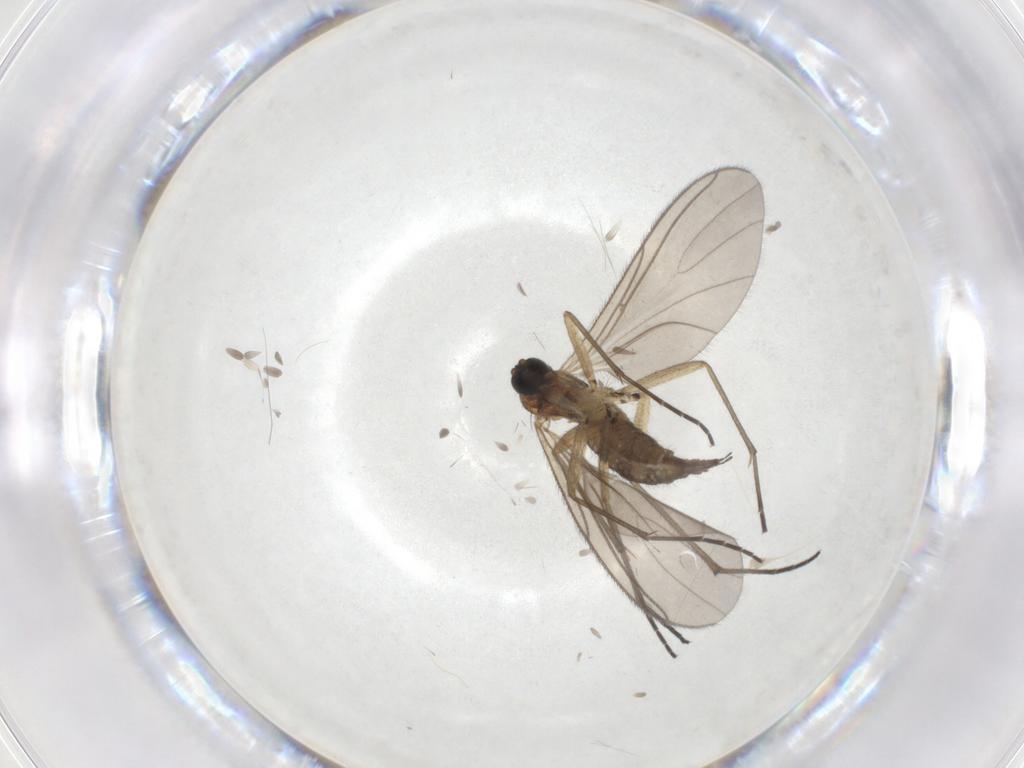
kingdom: Animalia
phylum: Arthropoda
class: Insecta
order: Diptera
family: Sciaridae
